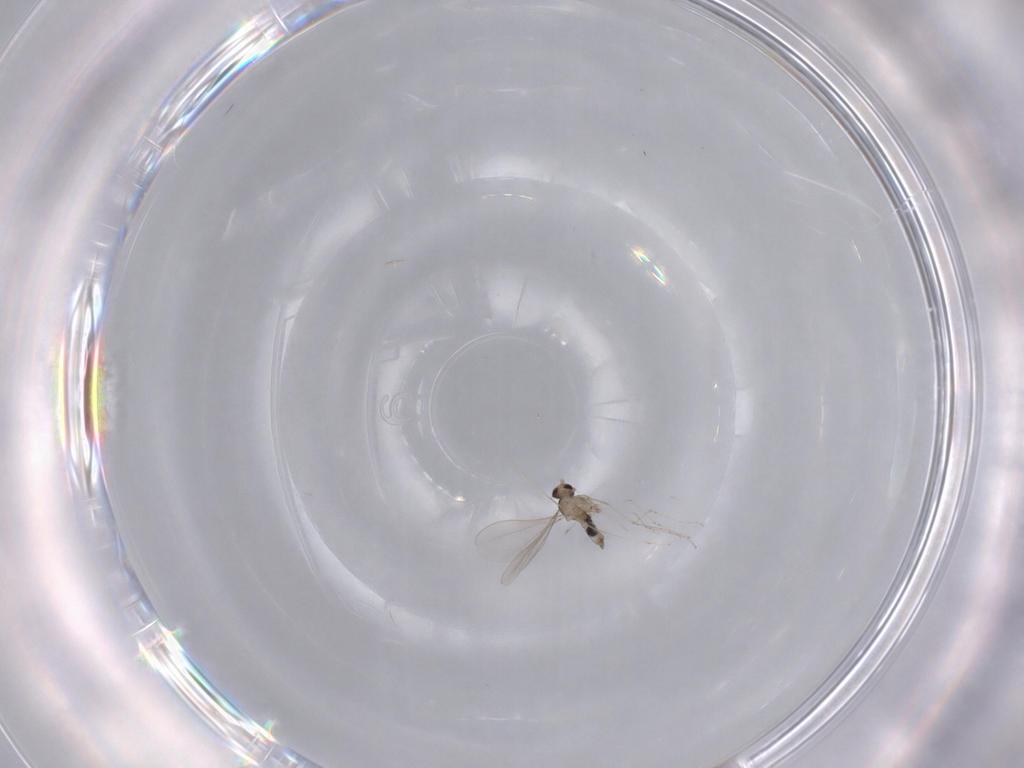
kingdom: Animalia
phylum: Arthropoda
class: Insecta
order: Diptera
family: Cecidomyiidae
